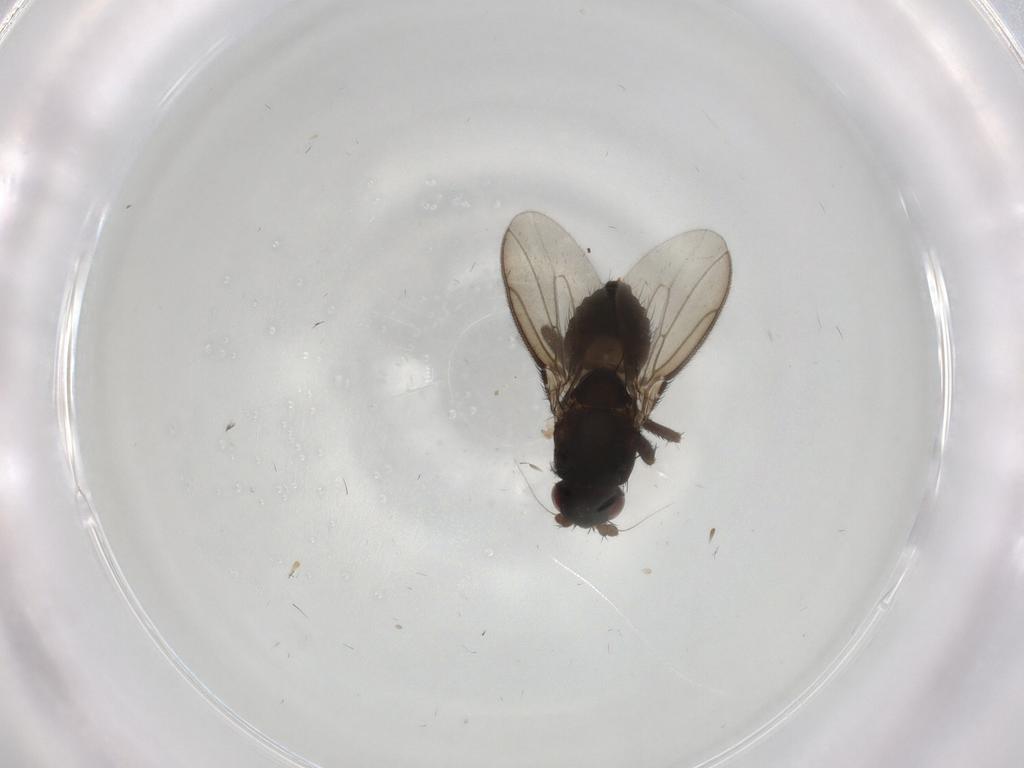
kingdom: Animalia
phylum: Arthropoda
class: Insecta
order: Diptera
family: Cecidomyiidae
